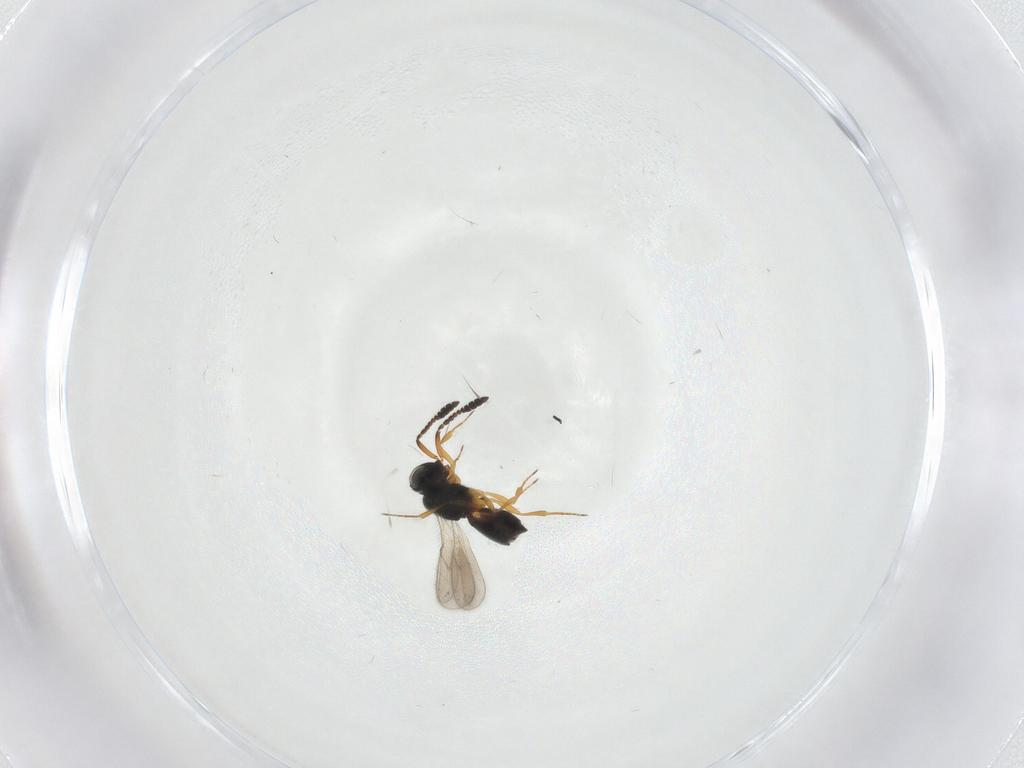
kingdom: Animalia
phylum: Arthropoda
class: Insecta
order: Hymenoptera
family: Scelionidae
